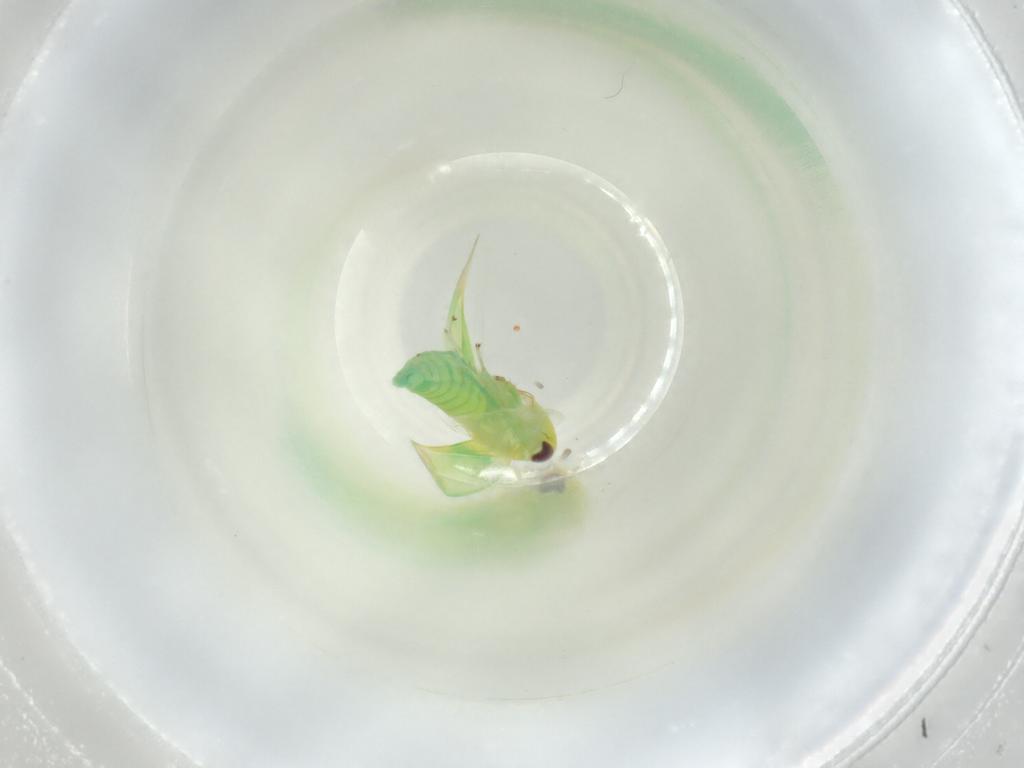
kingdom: Animalia
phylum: Arthropoda
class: Insecta
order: Hemiptera
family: Cicadellidae
